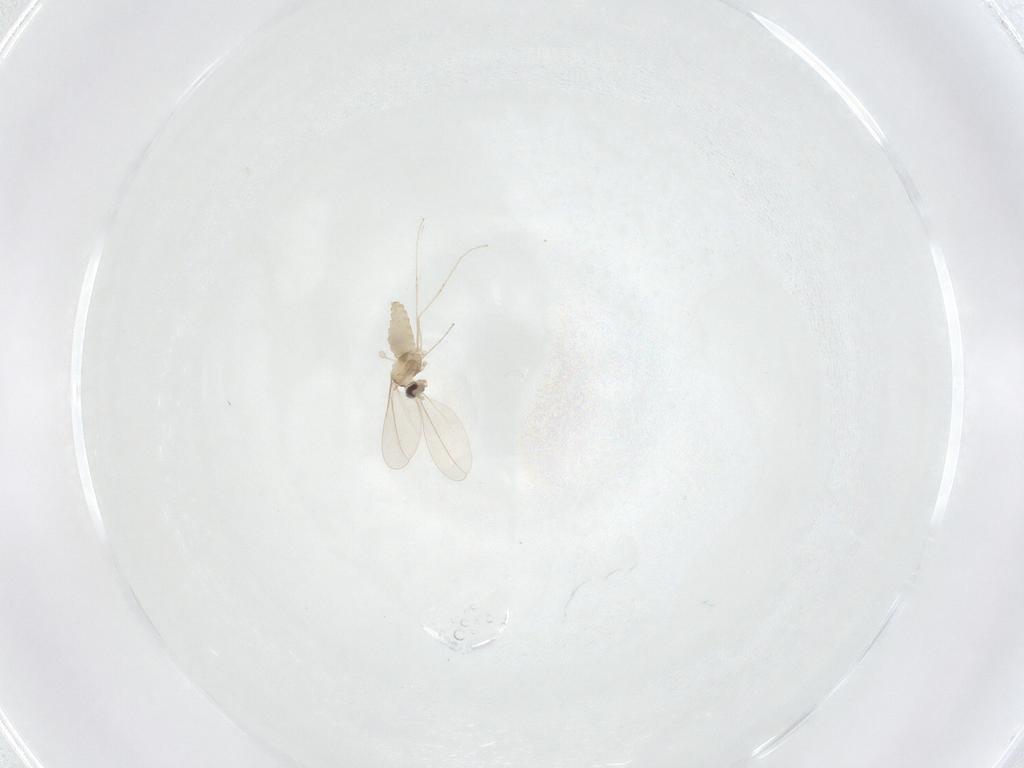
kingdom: Animalia
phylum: Arthropoda
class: Insecta
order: Diptera
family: Cecidomyiidae
